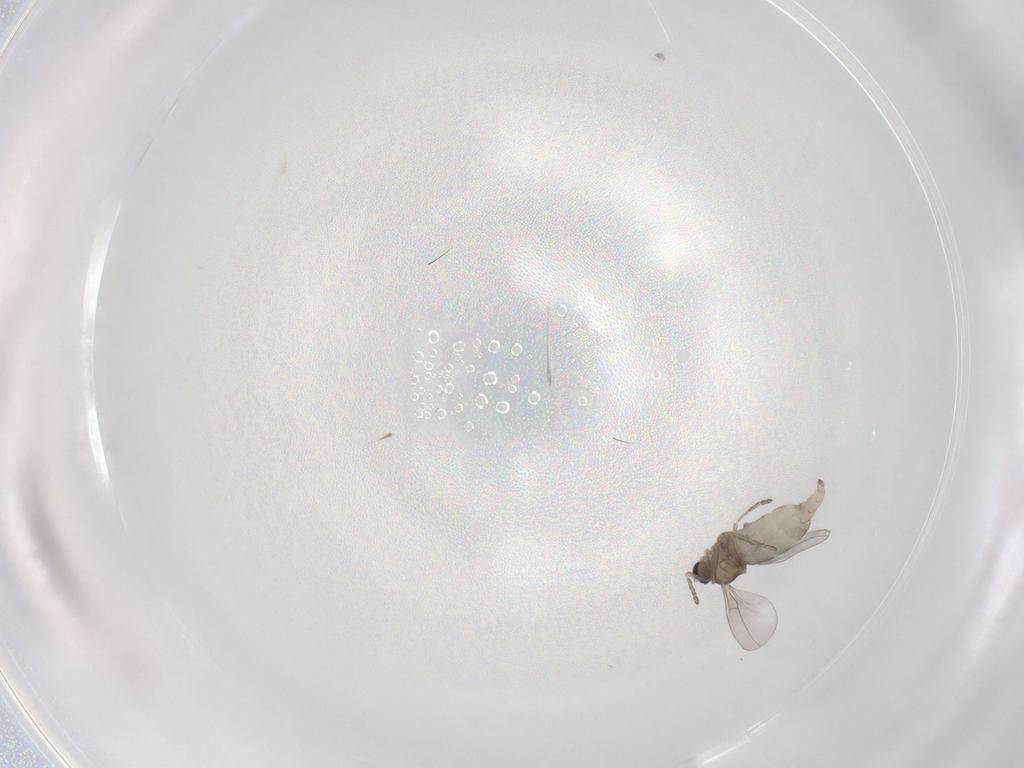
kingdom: Animalia
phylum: Arthropoda
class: Insecta
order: Diptera
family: Cecidomyiidae
